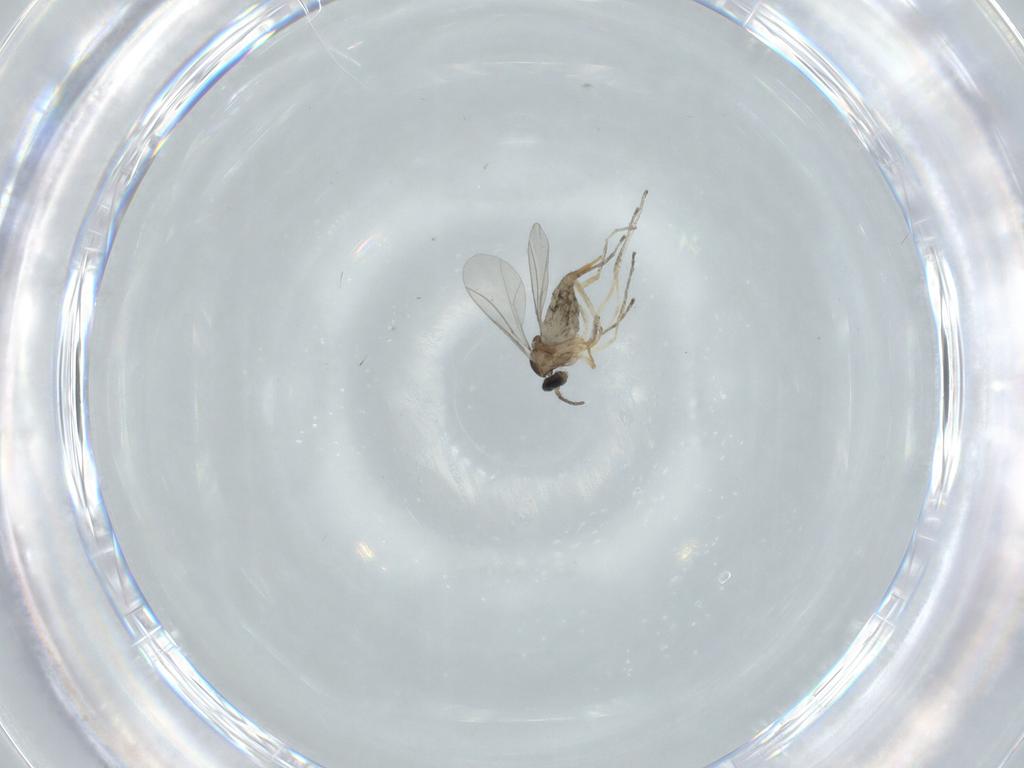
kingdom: Animalia
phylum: Arthropoda
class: Insecta
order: Diptera
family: Cecidomyiidae
